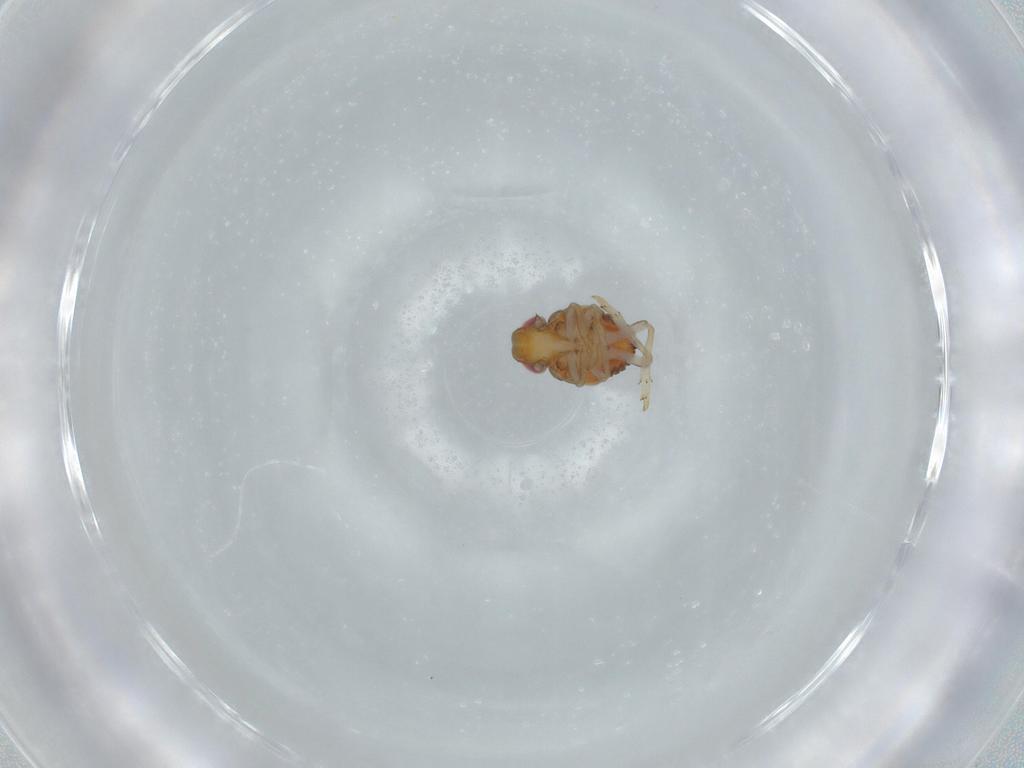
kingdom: Animalia
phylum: Arthropoda
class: Insecta
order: Hemiptera
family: Issidae
